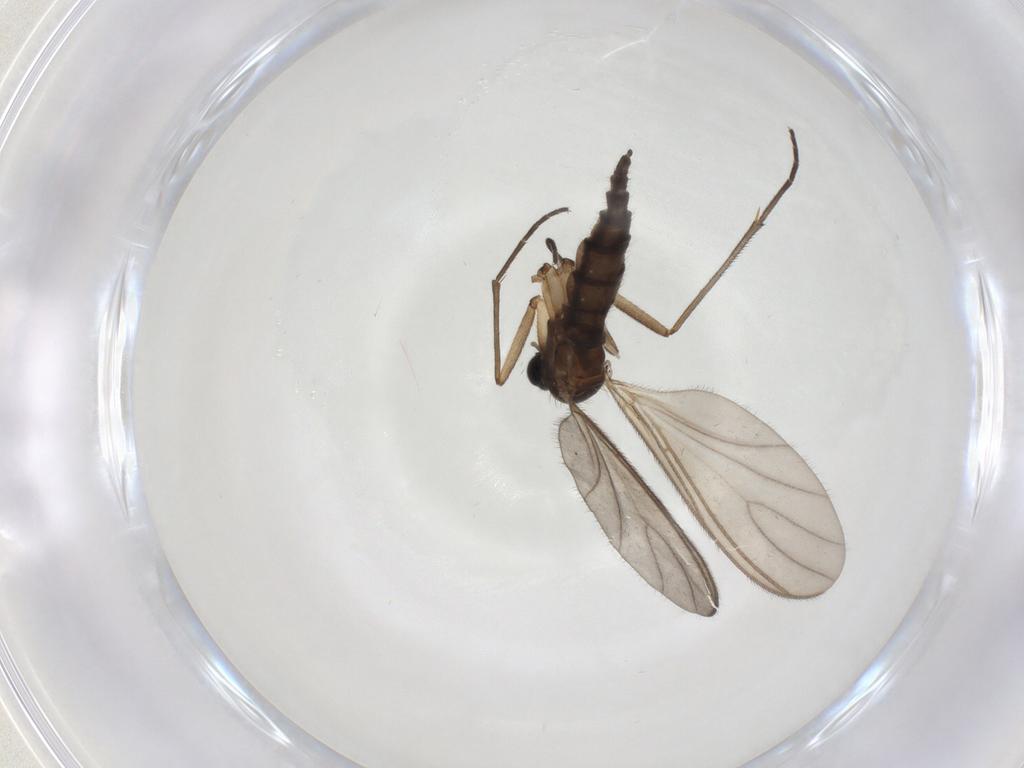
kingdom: Animalia
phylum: Arthropoda
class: Insecta
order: Diptera
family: Sciaridae
